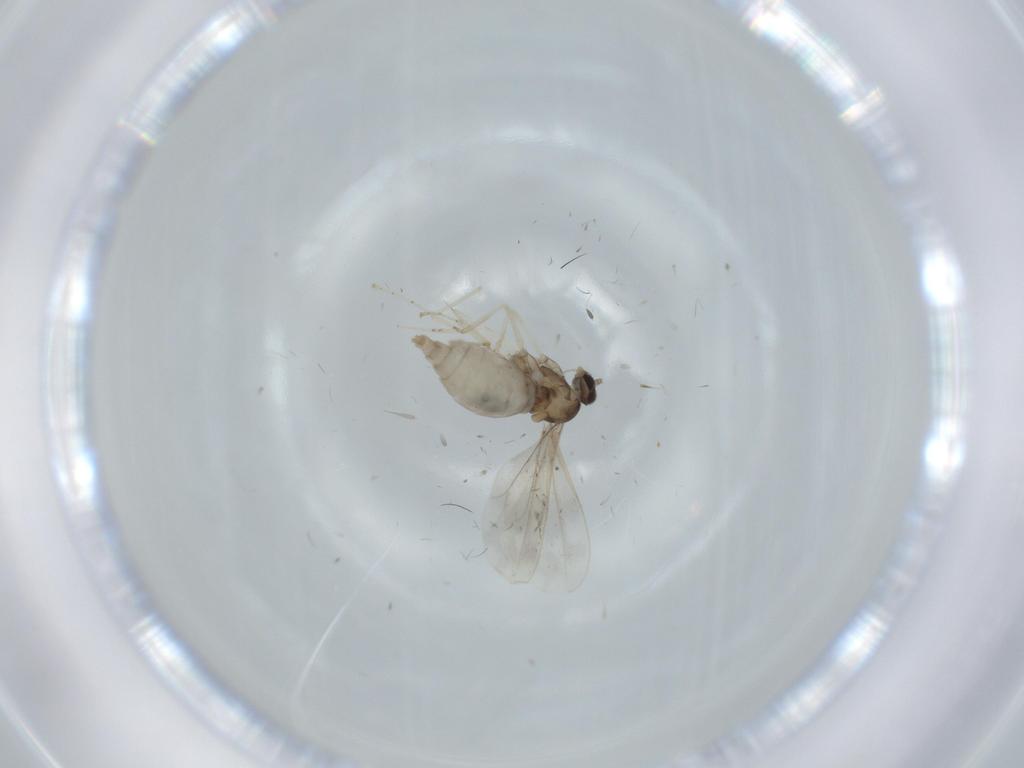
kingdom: Animalia
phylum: Arthropoda
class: Insecta
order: Diptera
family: Cecidomyiidae
